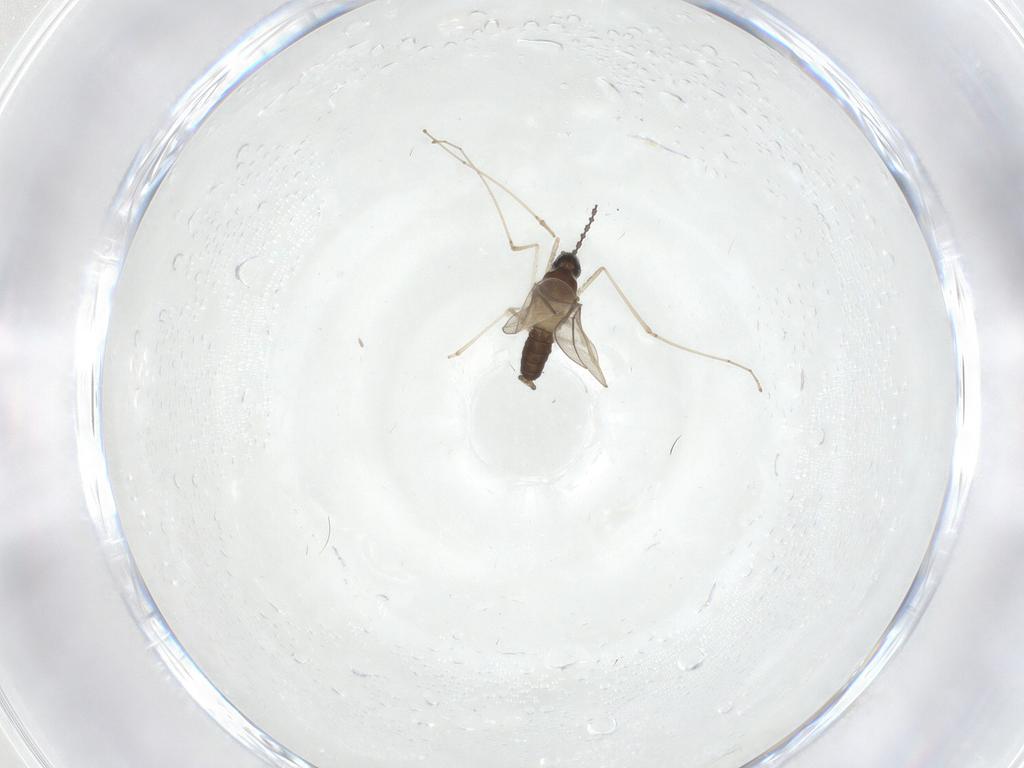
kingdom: Animalia
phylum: Arthropoda
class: Insecta
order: Diptera
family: Chironomidae
